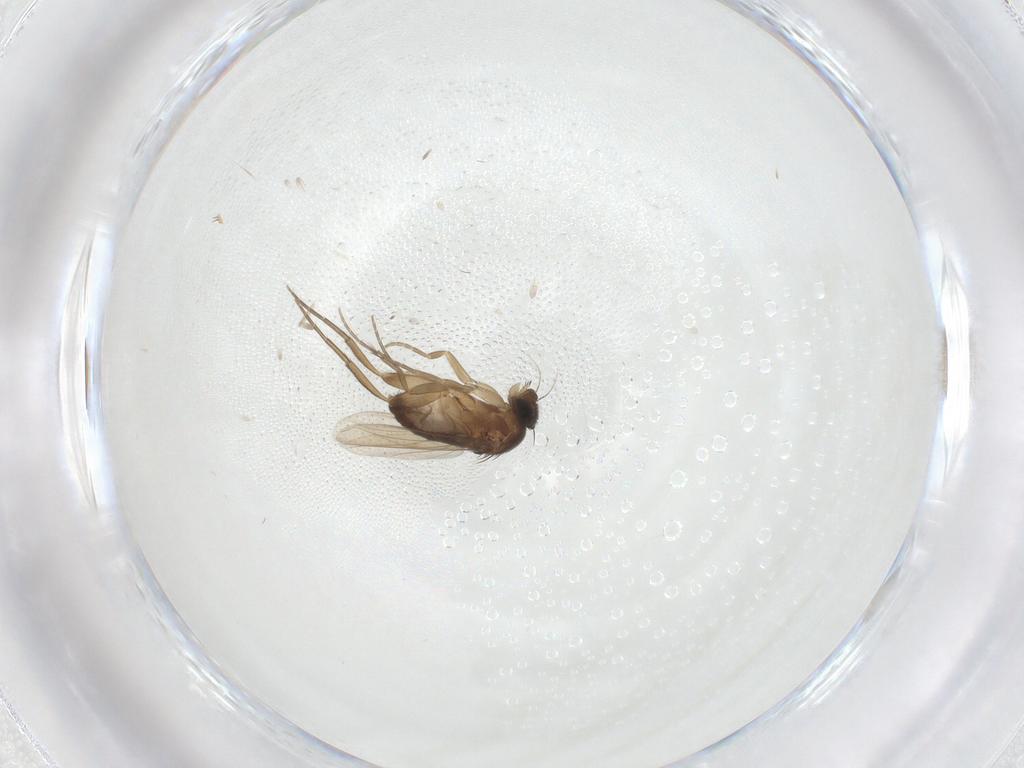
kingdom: Animalia
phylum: Arthropoda
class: Insecta
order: Diptera
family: Phoridae
